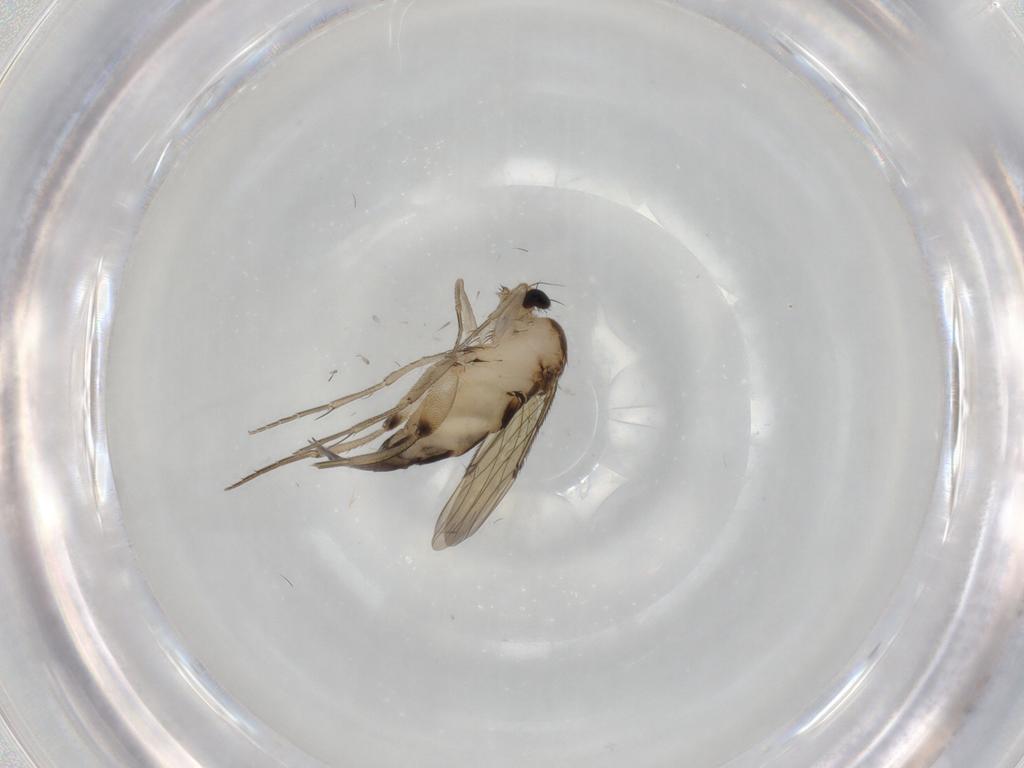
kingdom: Animalia
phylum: Arthropoda
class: Insecta
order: Diptera
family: Phoridae
